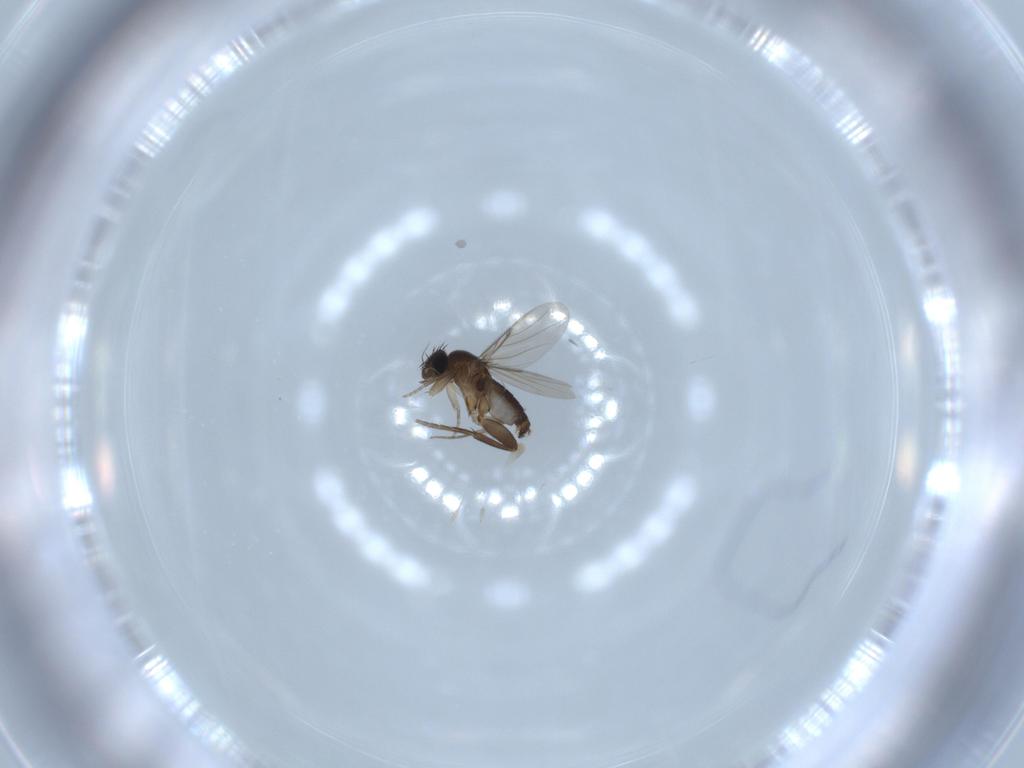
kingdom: Animalia
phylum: Arthropoda
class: Insecta
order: Diptera
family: Phoridae
